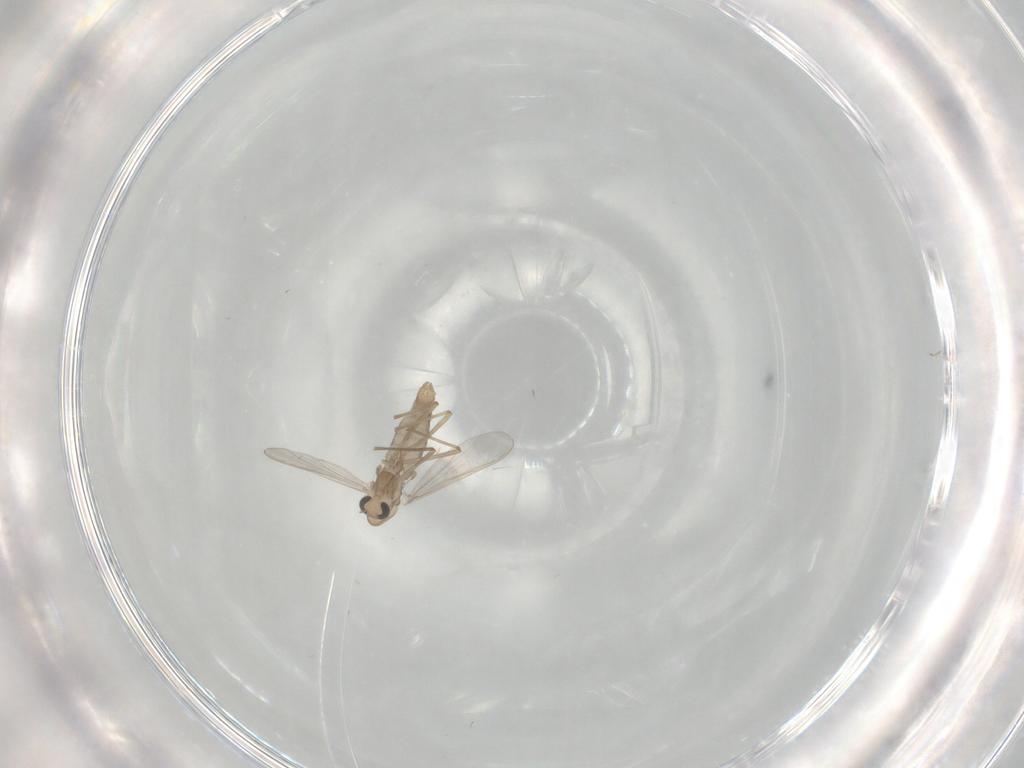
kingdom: Animalia
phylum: Arthropoda
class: Insecta
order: Diptera
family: Chironomidae
